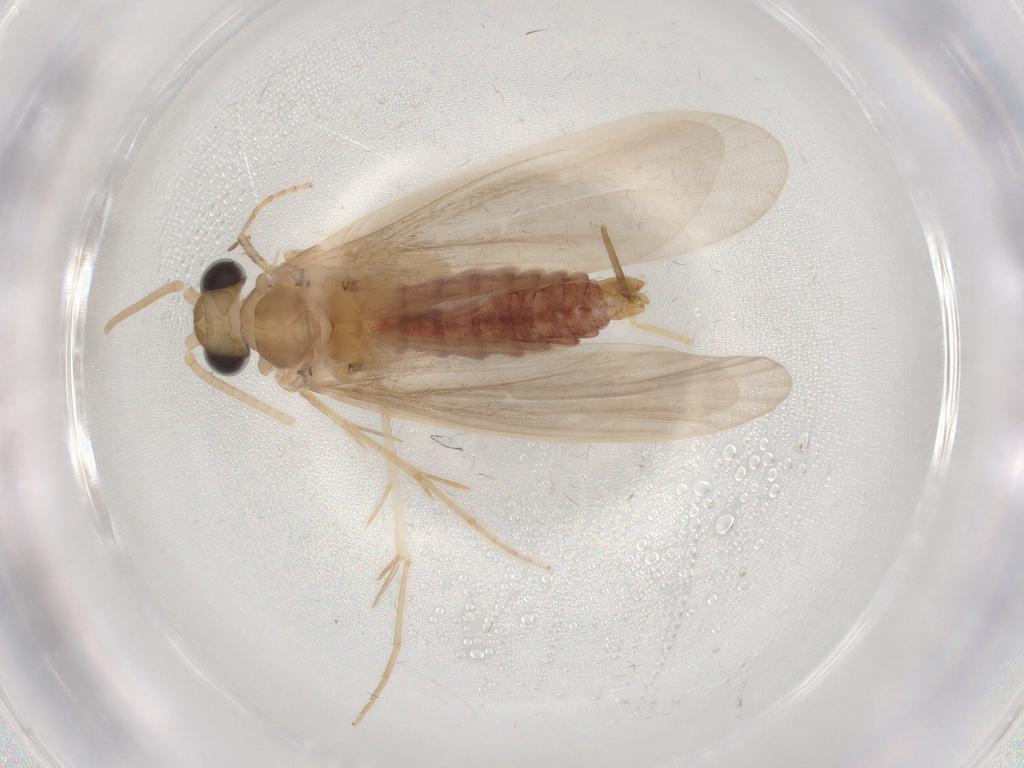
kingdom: Animalia
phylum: Arthropoda
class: Insecta
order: Trichoptera
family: Ecnomidae
